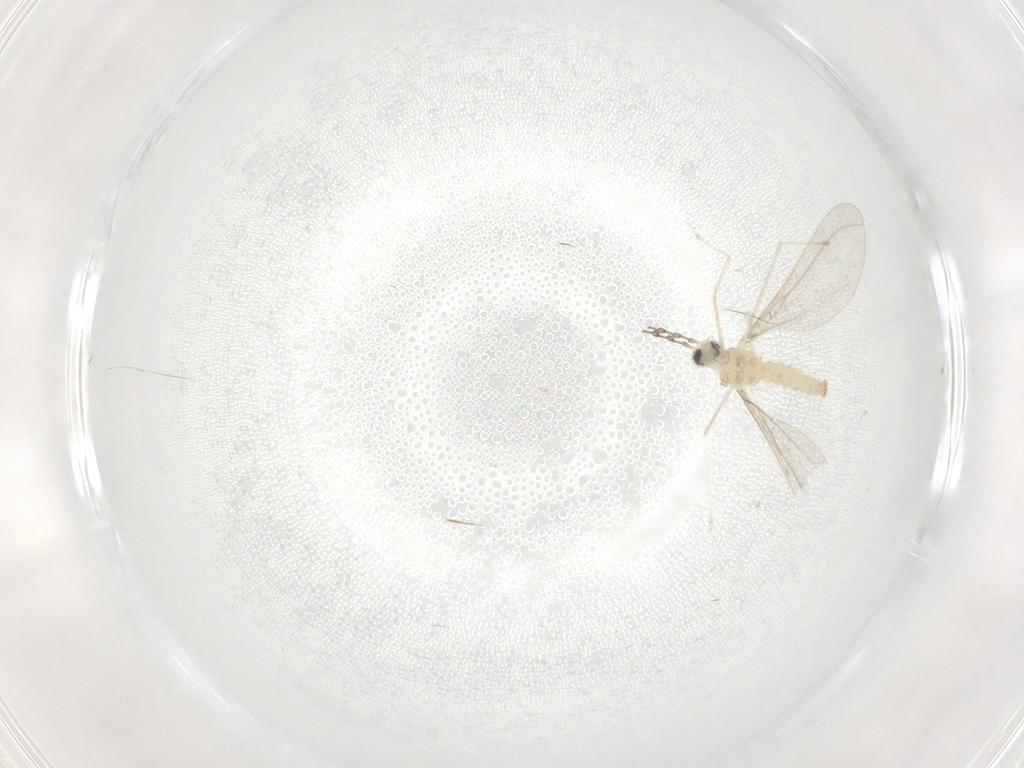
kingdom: Animalia
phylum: Arthropoda
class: Insecta
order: Diptera
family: Cecidomyiidae
